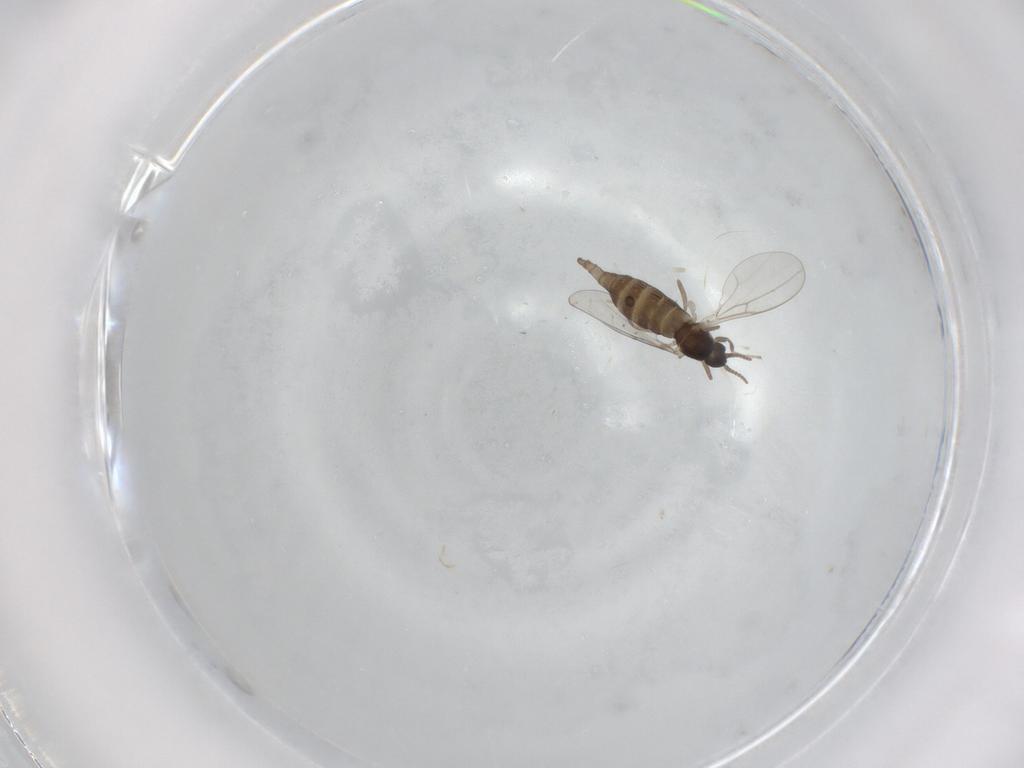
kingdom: Animalia
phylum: Arthropoda
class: Insecta
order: Diptera
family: Cecidomyiidae
